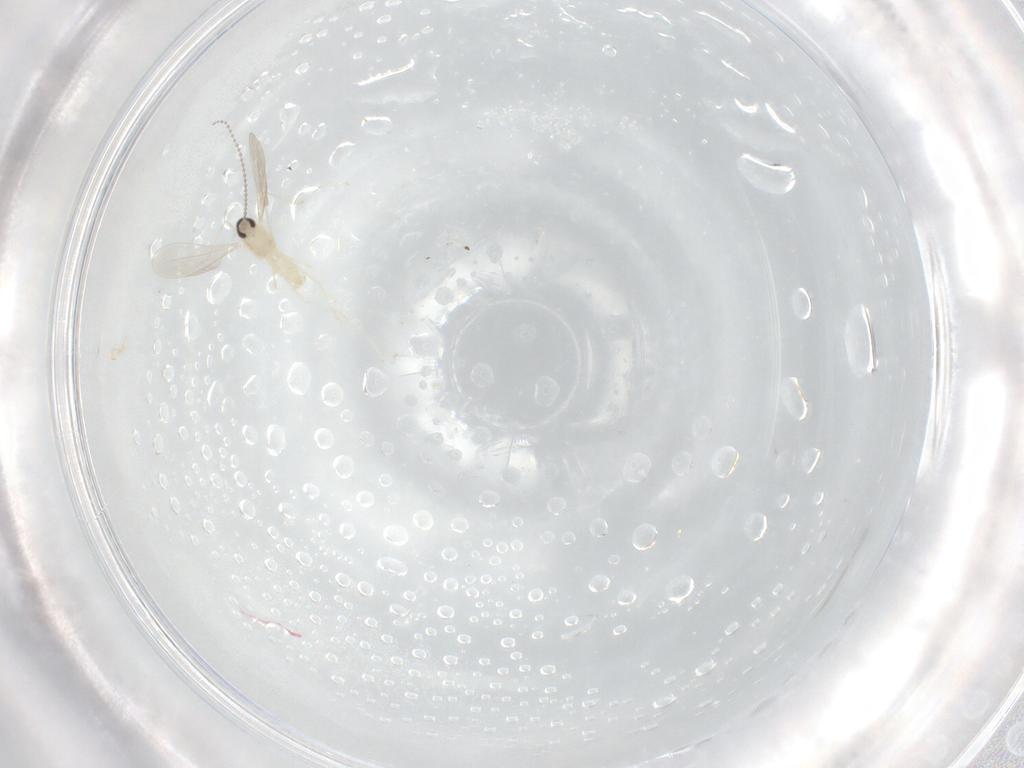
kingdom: Animalia
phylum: Arthropoda
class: Insecta
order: Diptera
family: Cecidomyiidae
